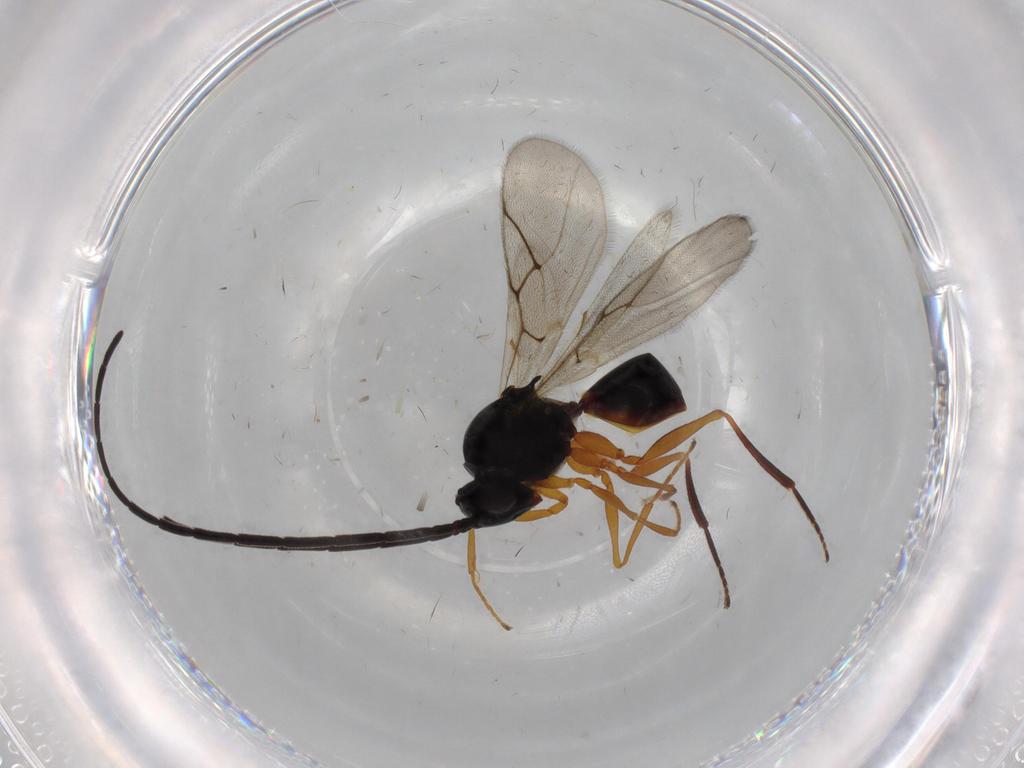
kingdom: Animalia
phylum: Arthropoda
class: Insecta
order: Hymenoptera
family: Figitidae
